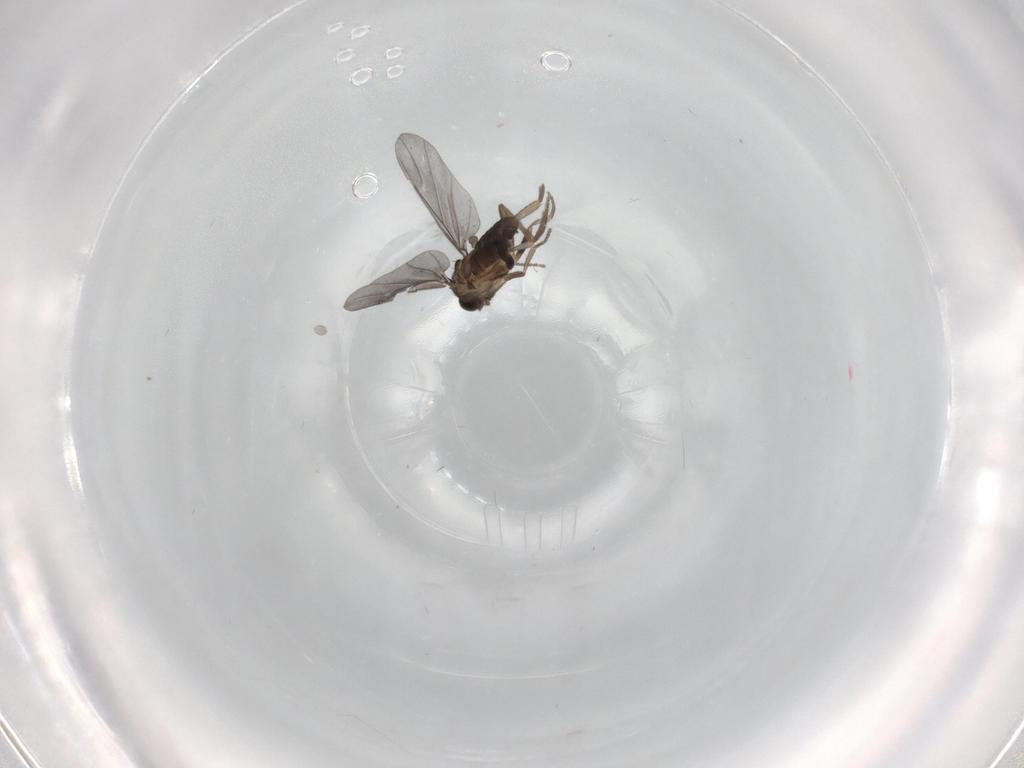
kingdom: Animalia
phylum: Arthropoda
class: Insecta
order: Diptera
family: Phoridae
